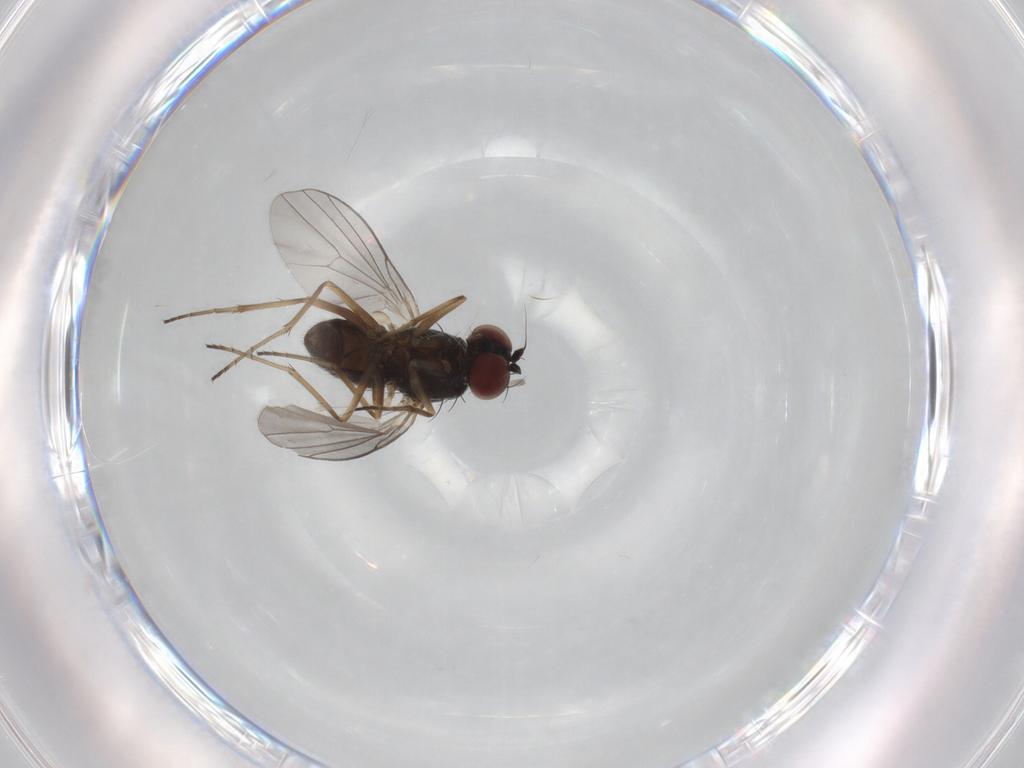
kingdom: Animalia
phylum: Arthropoda
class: Insecta
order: Diptera
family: Dolichopodidae
